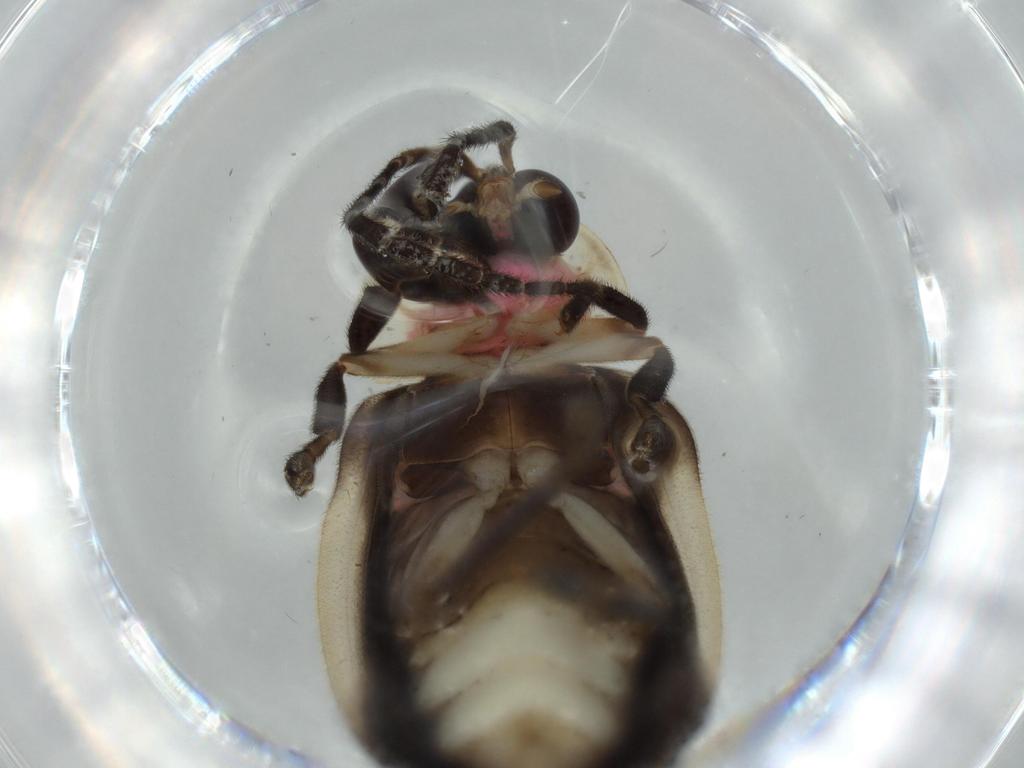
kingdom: Animalia
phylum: Arthropoda
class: Insecta
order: Coleoptera
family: Lampyridae
